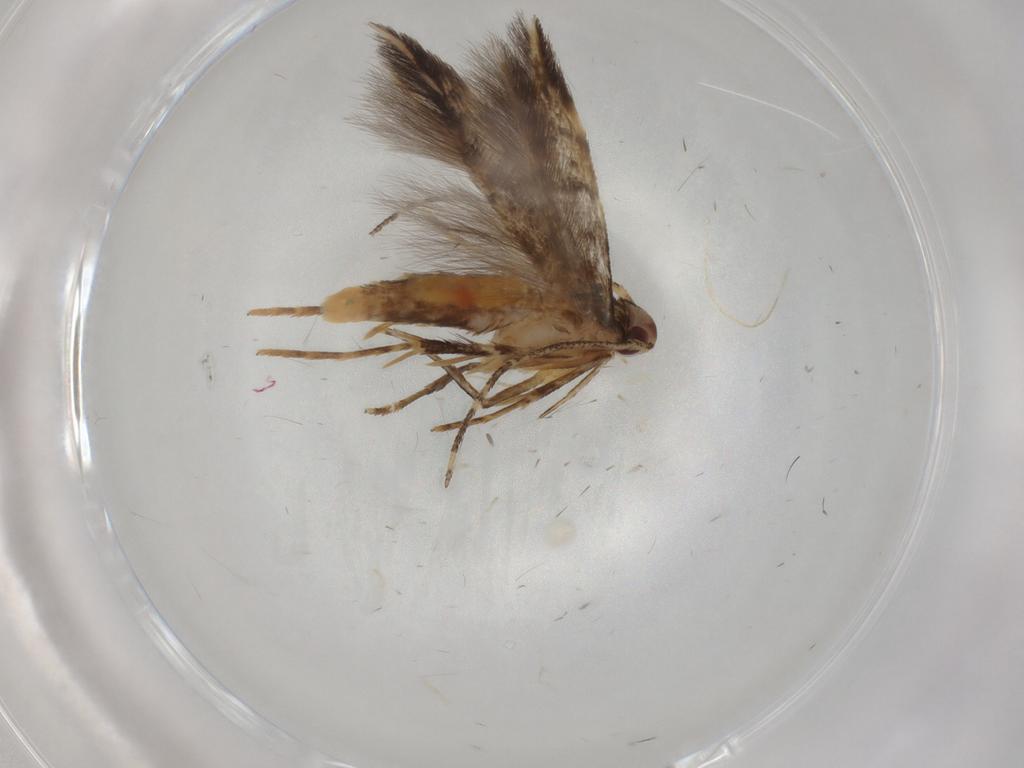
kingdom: Animalia
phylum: Arthropoda
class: Insecta
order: Lepidoptera
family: Cosmopterigidae
